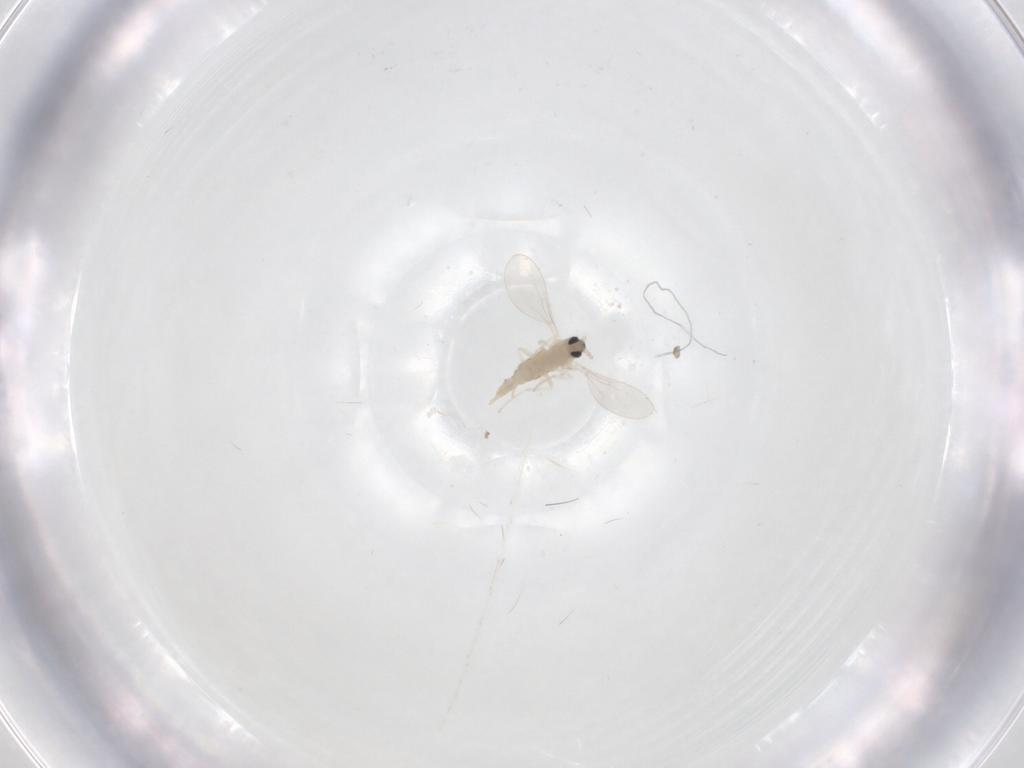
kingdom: Animalia
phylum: Arthropoda
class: Insecta
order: Diptera
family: Cecidomyiidae
